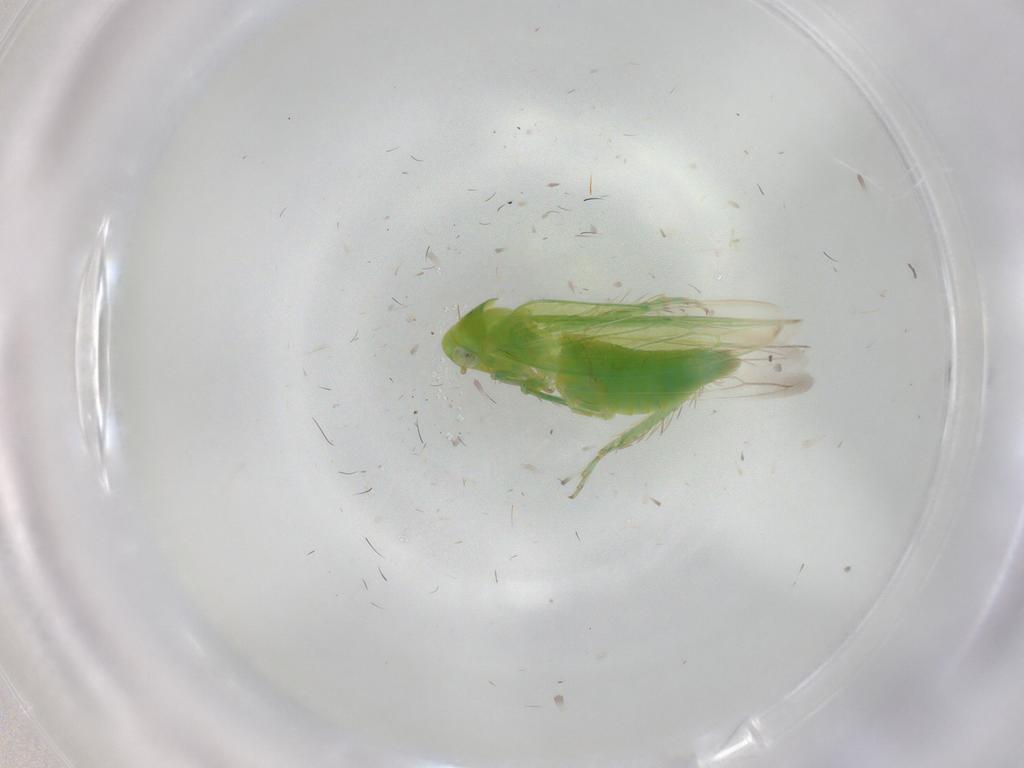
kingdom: Animalia
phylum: Arthropoda
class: Insecta
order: Hemiptera
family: Cicadellidae
